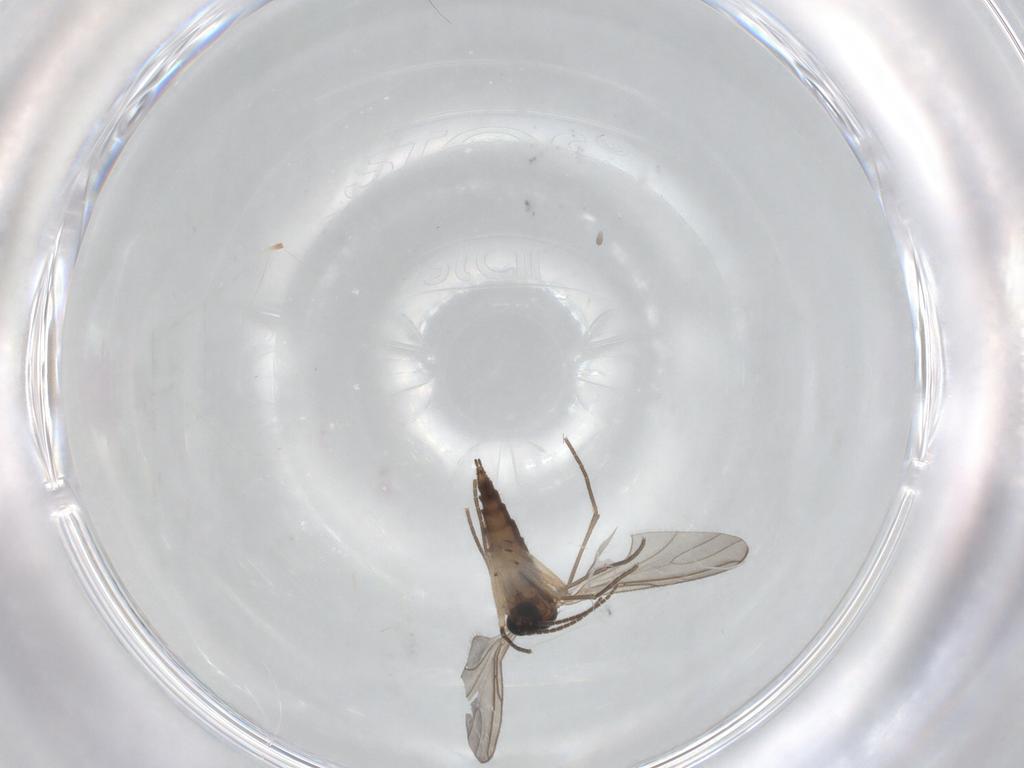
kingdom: Animalia
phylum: Arthropoda
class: Insecta
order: Diptera
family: Sciaridae
